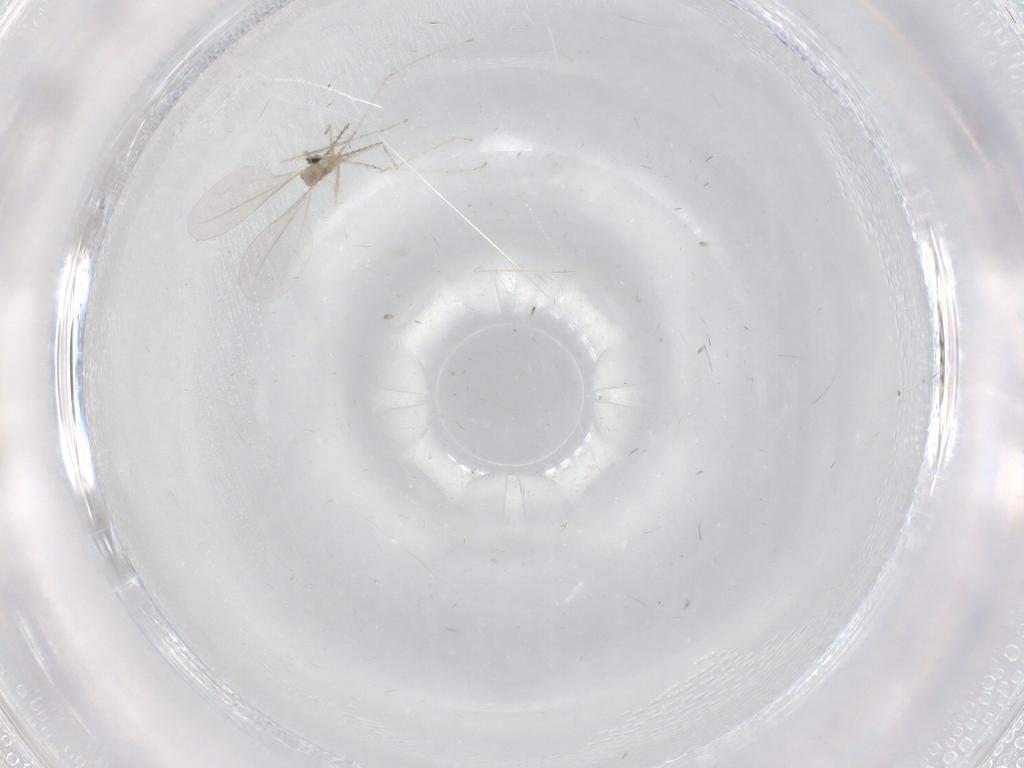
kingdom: Animalia
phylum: Arthropoda
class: Insecta
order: Diptera
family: Chironomidae
